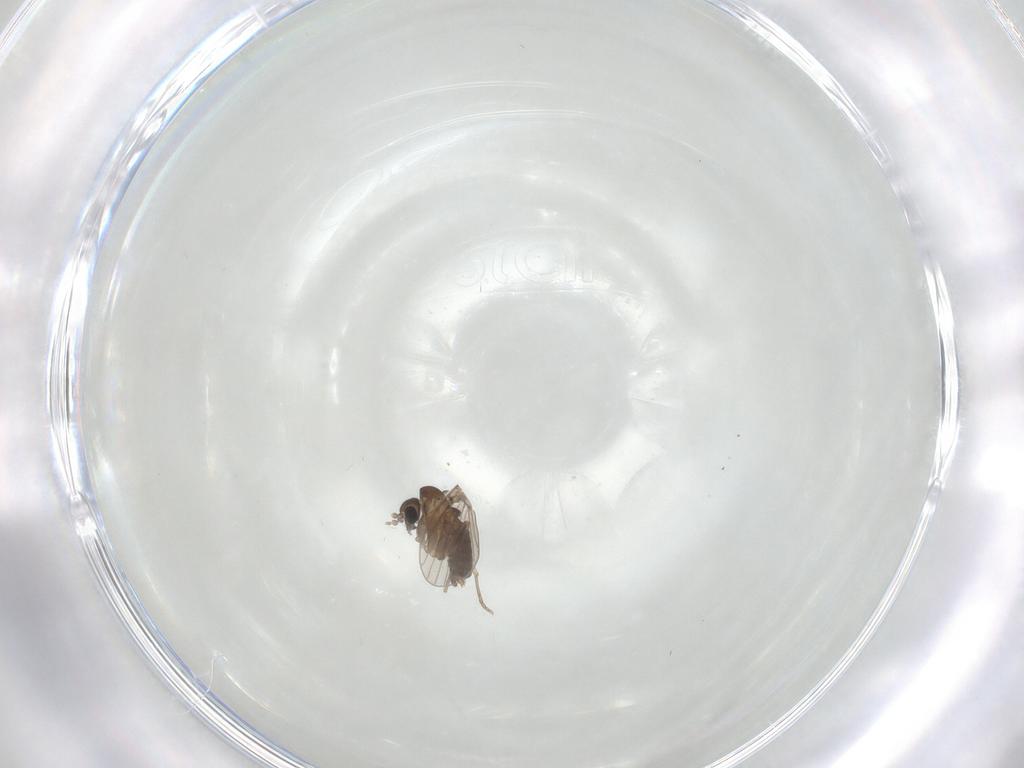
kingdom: Animalia
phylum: Arthropoda
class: Insecta
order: Diptera
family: Psychodidae
